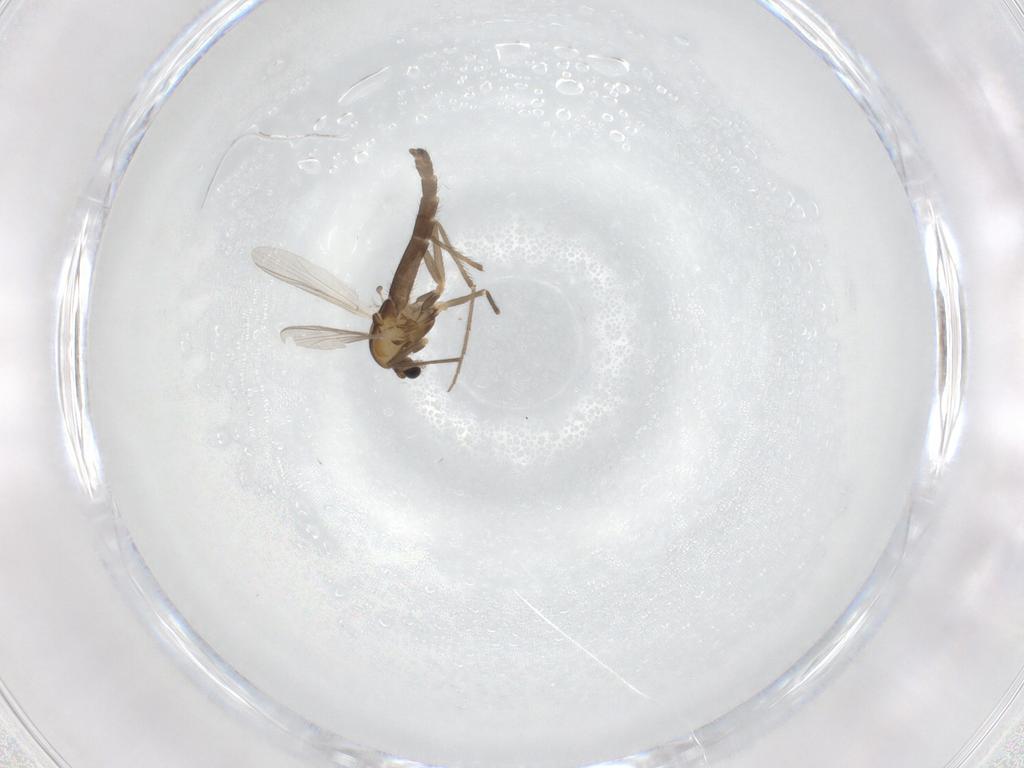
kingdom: Animalia
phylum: Arthropoda
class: Insecta
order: Diptera
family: Chironomidae
